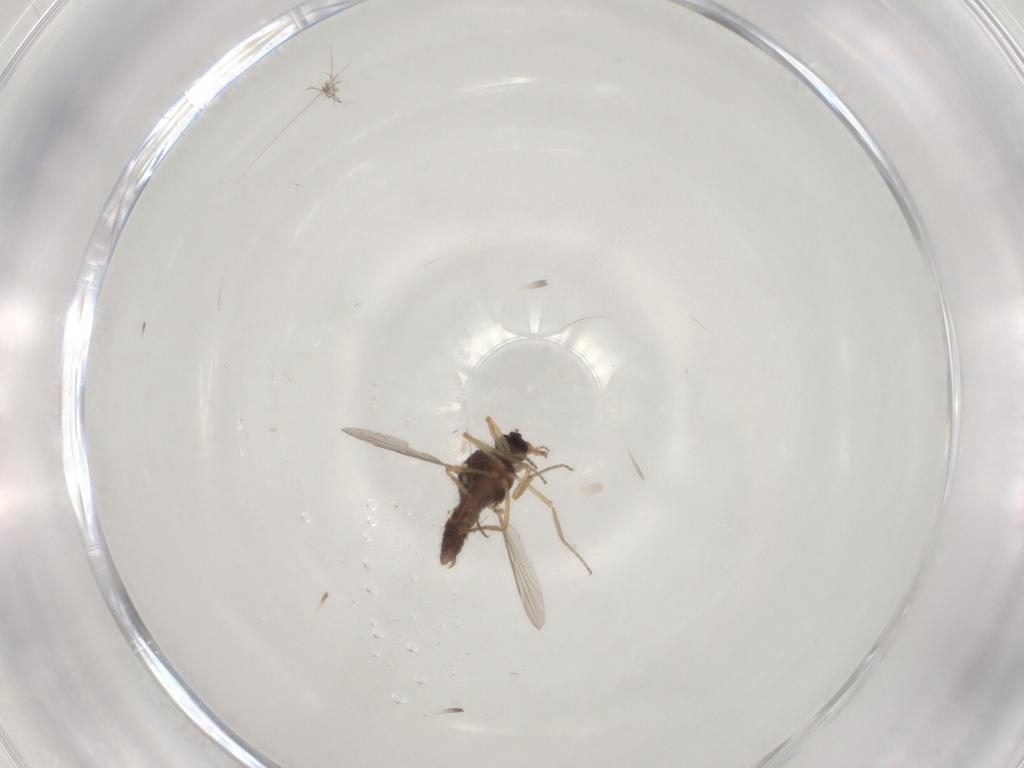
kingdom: Animalia
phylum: Arthropoda
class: Insecta
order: Diptera
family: Ceratopogonidae
